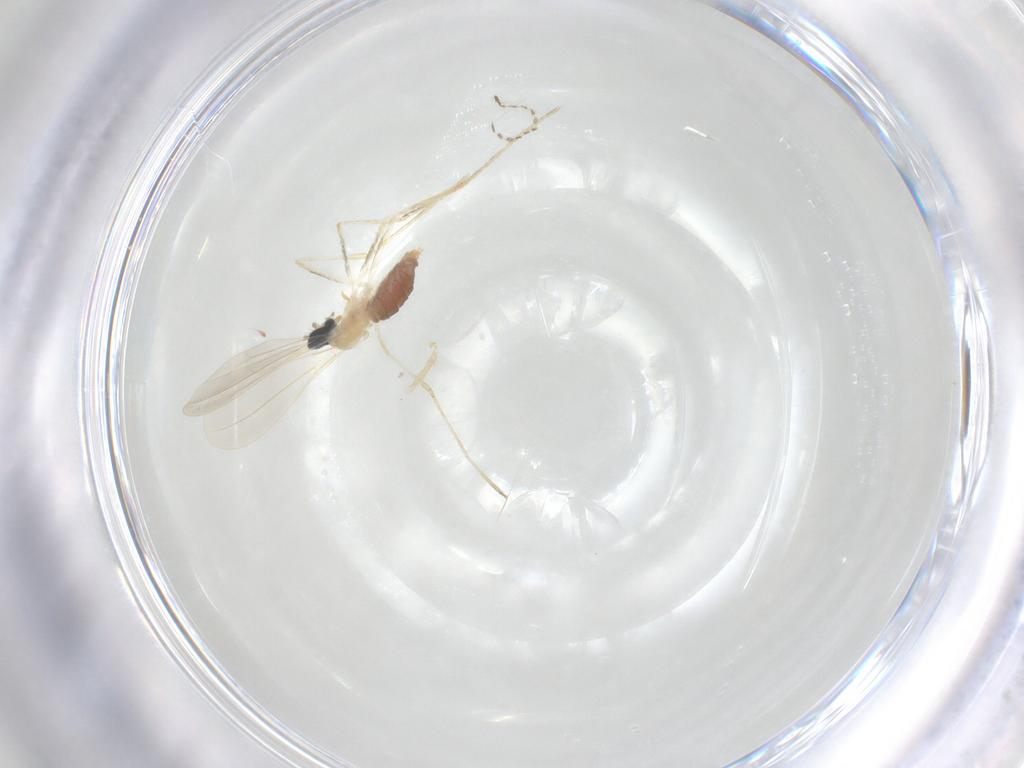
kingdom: Animalia
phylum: Arthropoda
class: Insecta
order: Diptera
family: Cecidomyiidae
